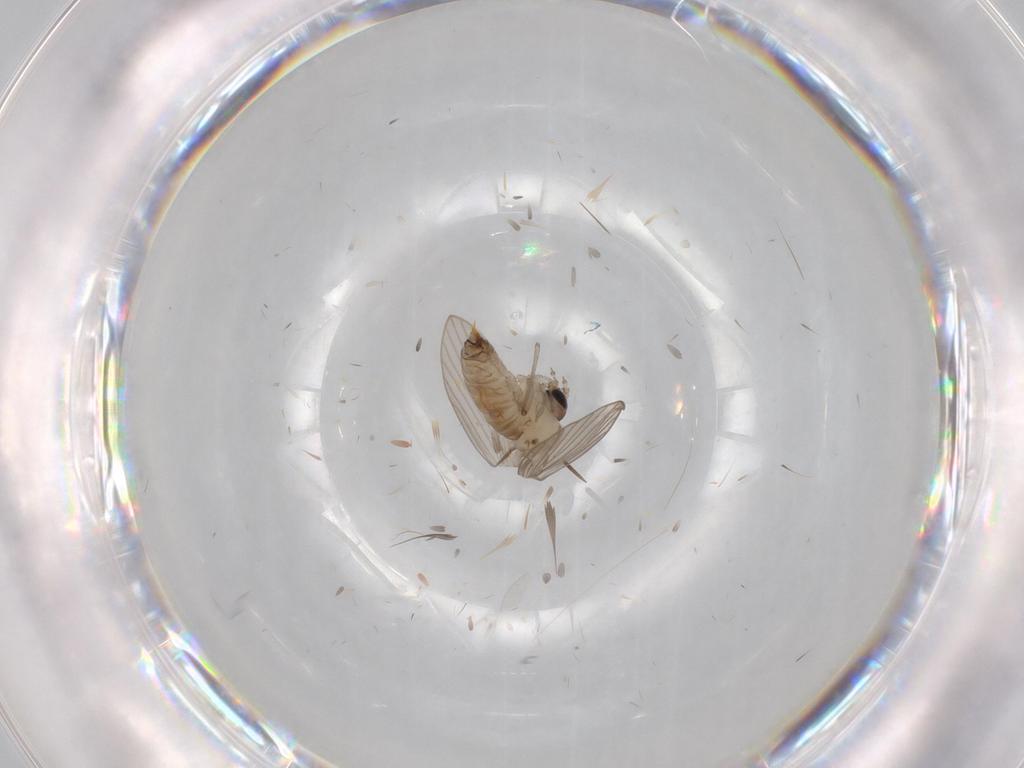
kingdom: Animalia
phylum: Arthropoda
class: Insecta
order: Diptera
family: Psychodidae
